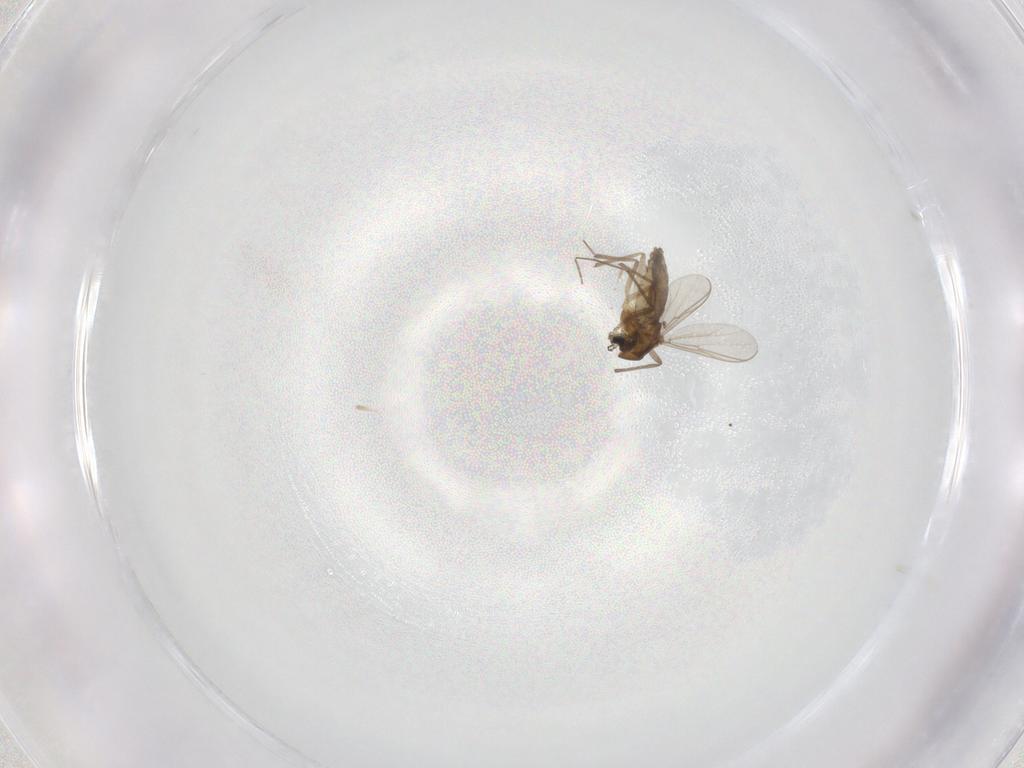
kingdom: Animalia
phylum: Arthropoda
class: Insecta
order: Diptera
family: Chironomidae
